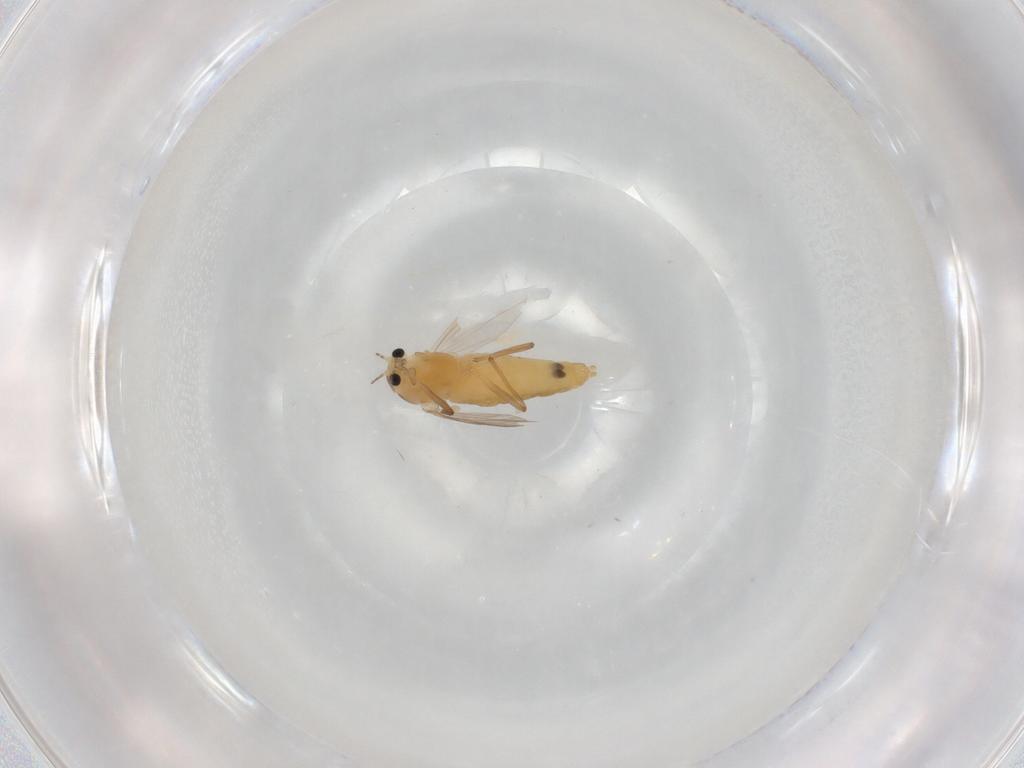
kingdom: Animalia
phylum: Arthropoda
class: Insecta
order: Diptera
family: Chironomidae
